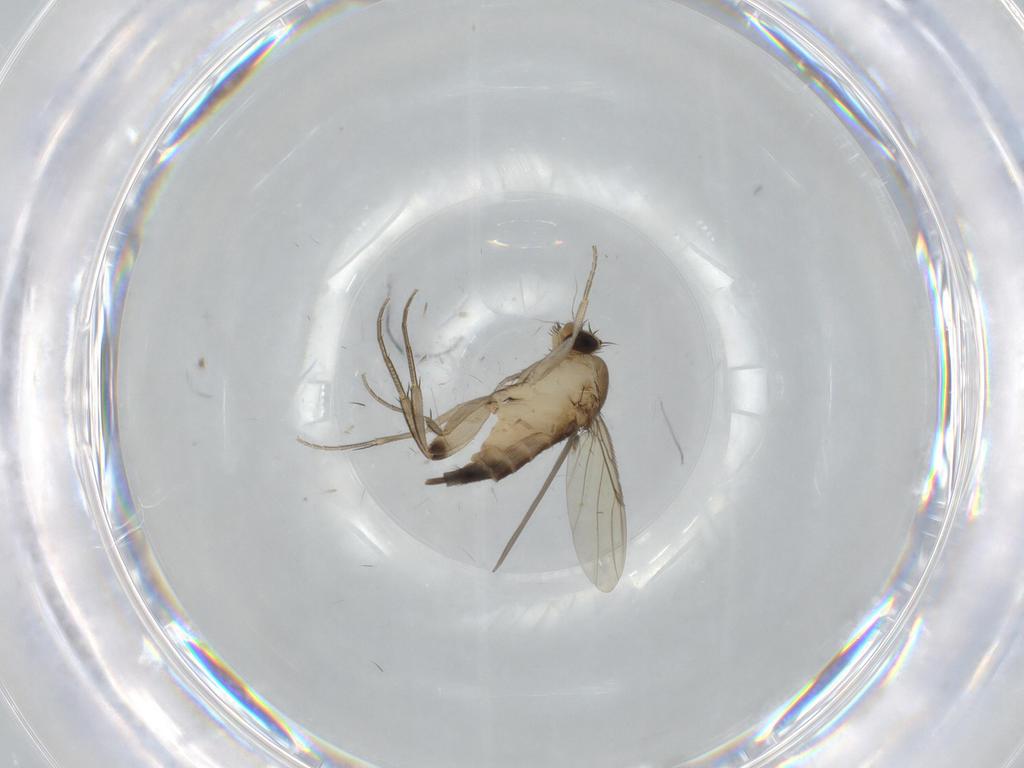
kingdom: Animalia
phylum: Arthropoda
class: Insecta
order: Diptera
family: Phoridae
